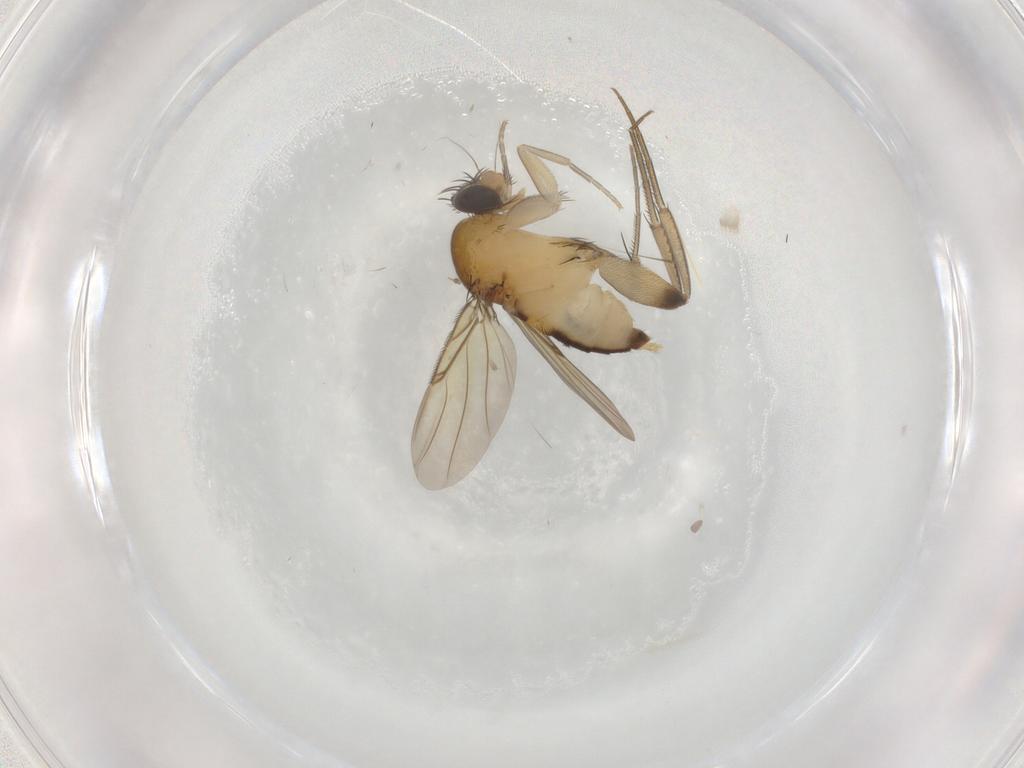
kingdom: Animalia
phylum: Arthropoda
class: Insecta
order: Diptera
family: Phoridae
